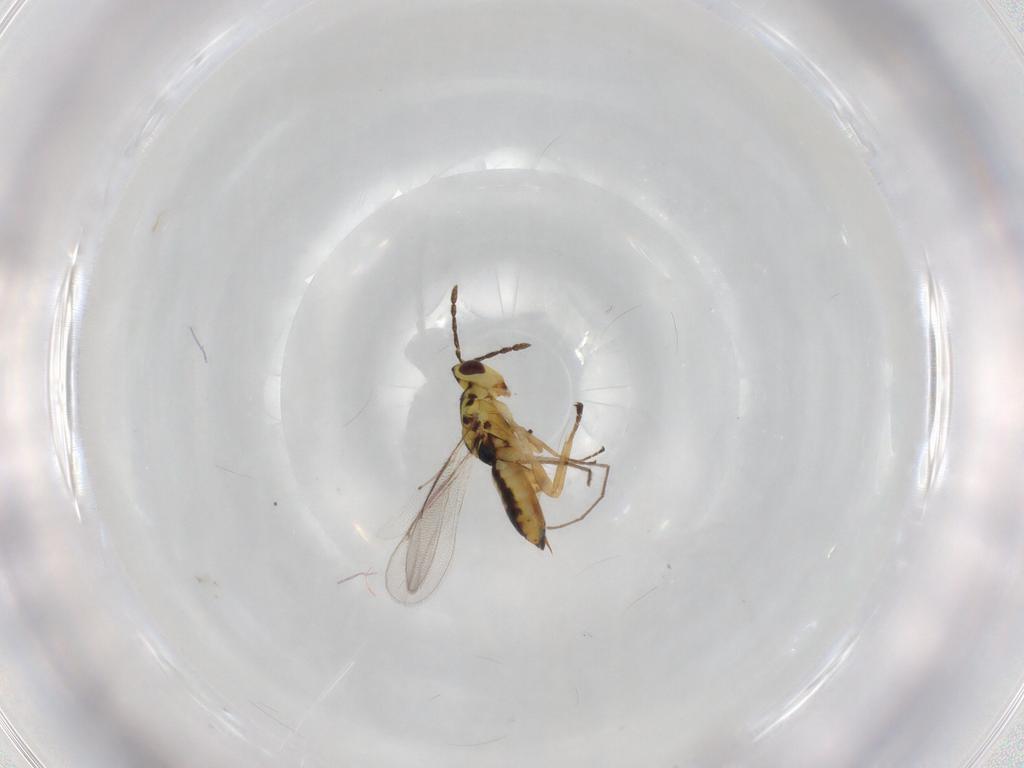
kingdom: Animalia
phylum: Arthropoda
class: Insecta
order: Hymenoptera
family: Eulophidae
